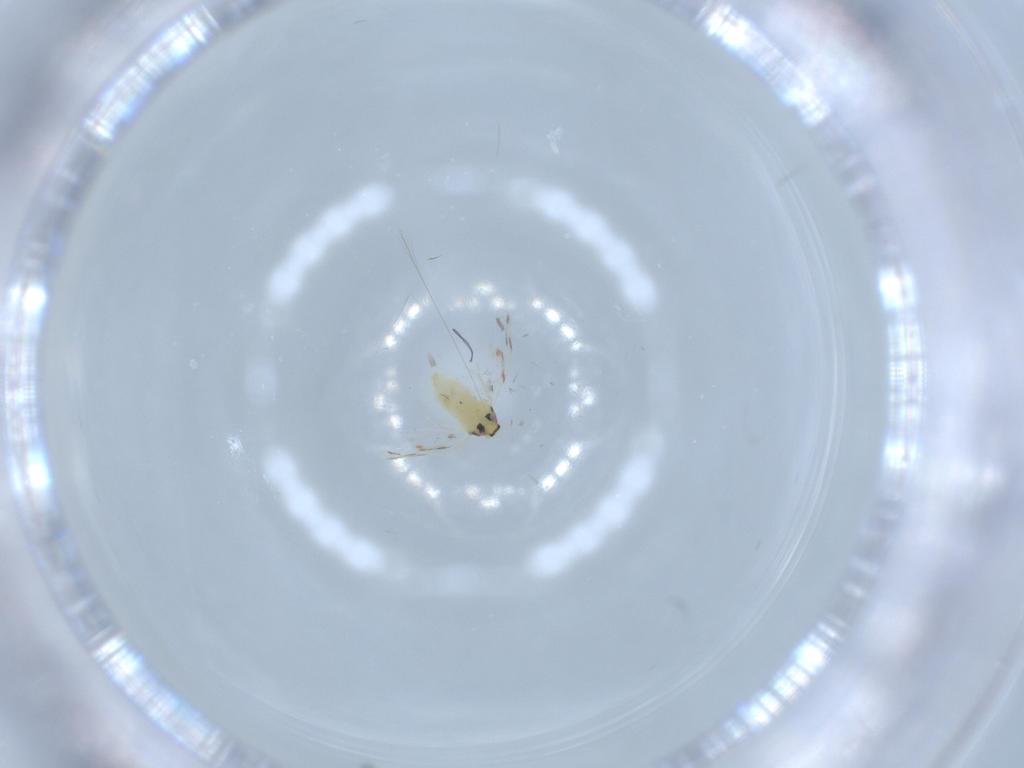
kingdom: Animalia
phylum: Arthropoda
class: Insecta
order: Hemiptera
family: Aleyrodidae
